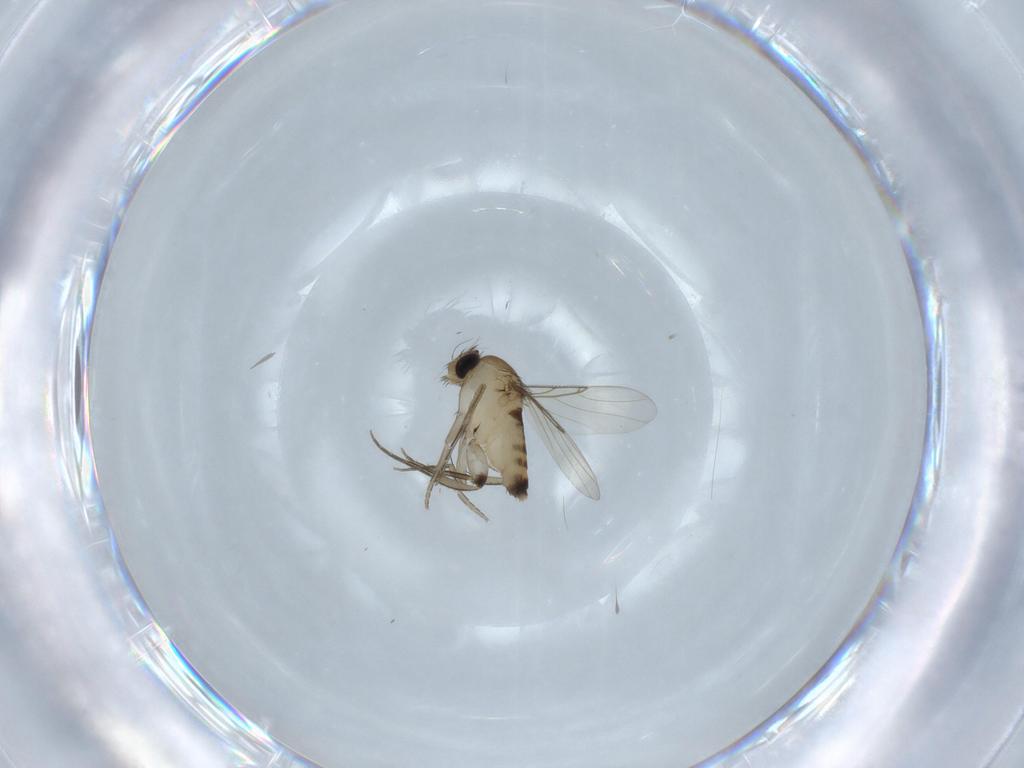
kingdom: Animalia
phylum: Arthropoda
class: Insecta
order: Diptera
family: Phoridae
